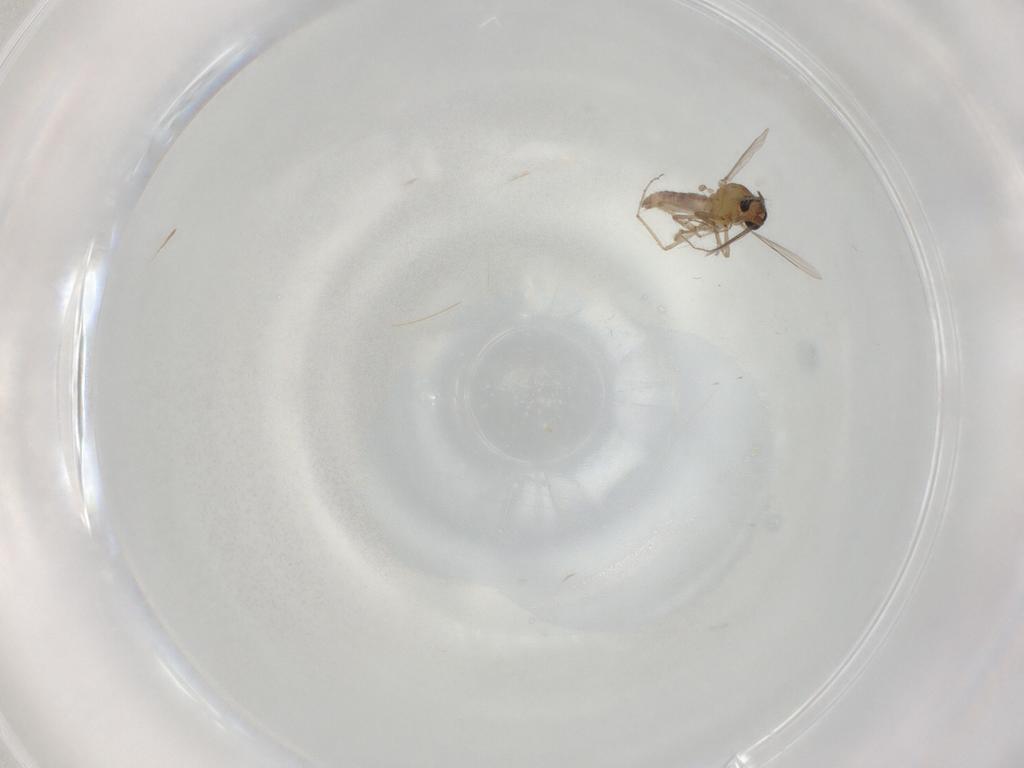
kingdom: Animalia
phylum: Arthropoda
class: Insecta
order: Diptera
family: Ceratopogonidae
